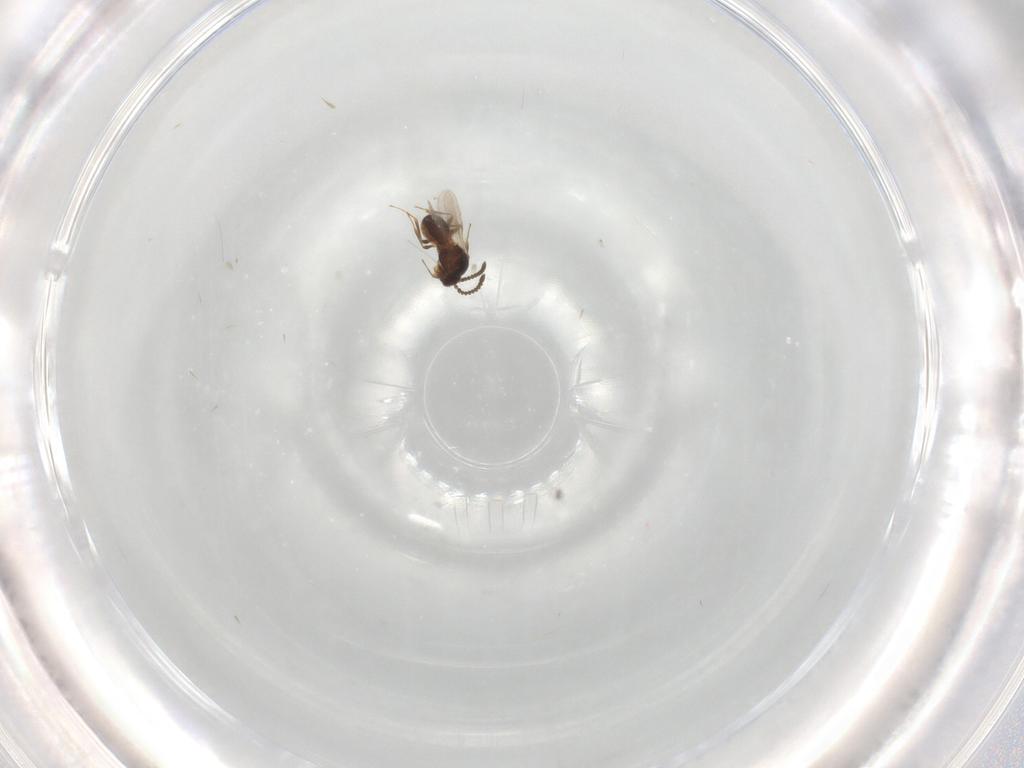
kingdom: Animalia
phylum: Arthropoda
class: Insecta
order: Hymenoptera
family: Scelionidae
